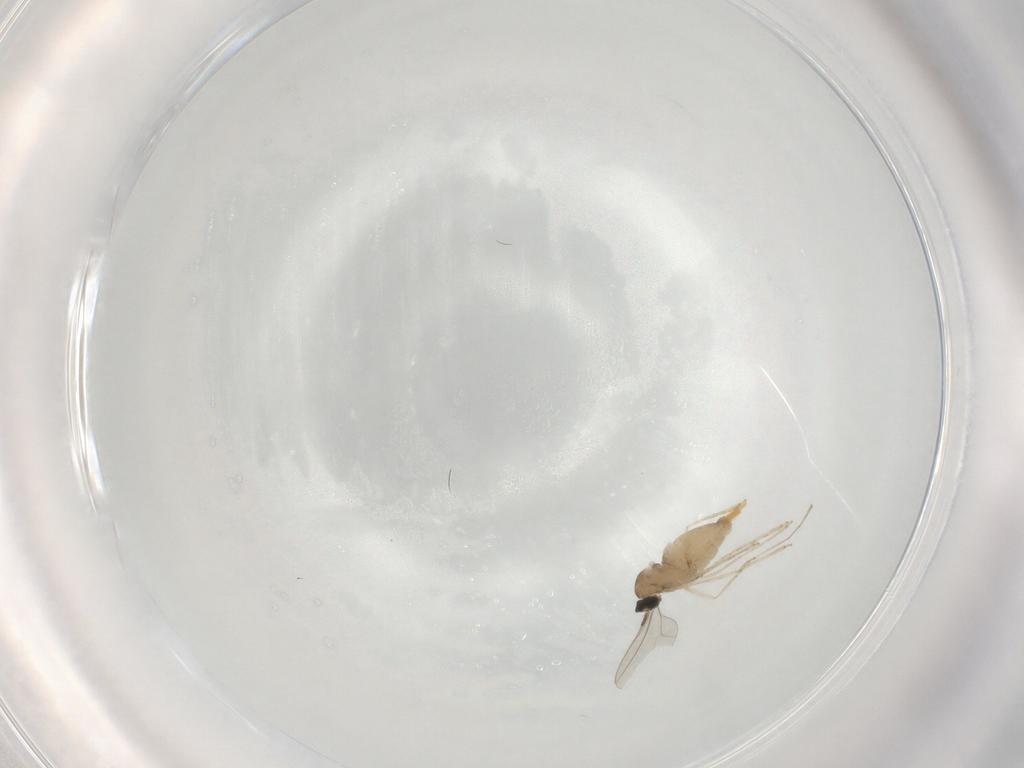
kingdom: Animalia
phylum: Arthropoda
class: Insecta
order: Diptera
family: Cecidomyiidae
